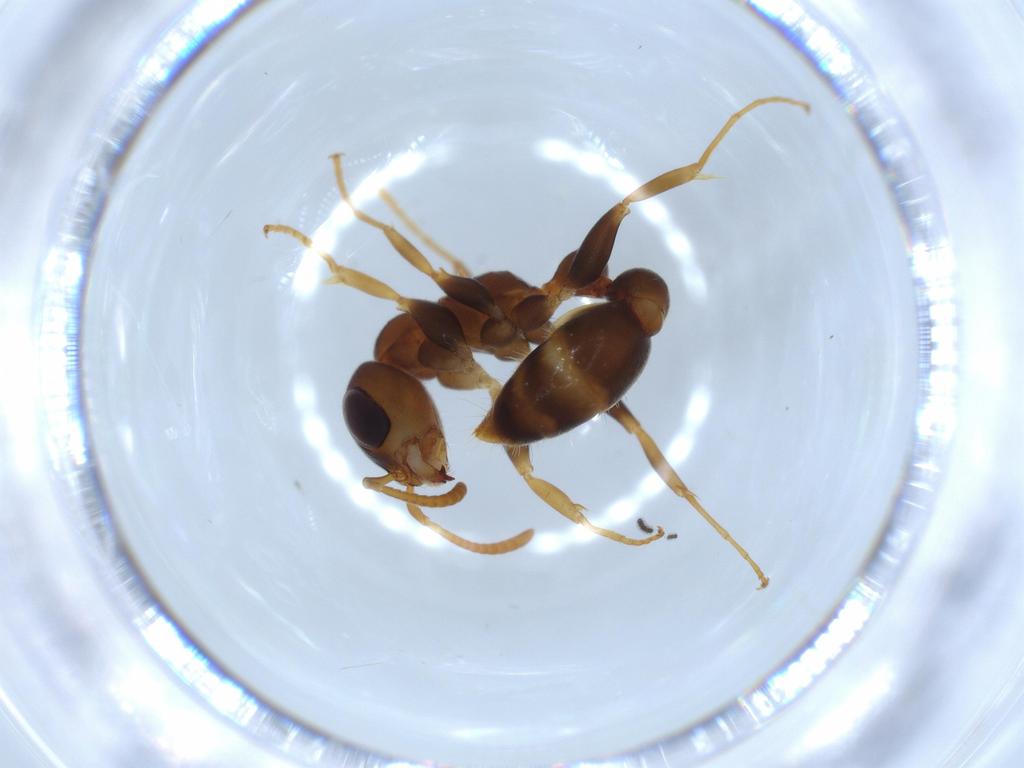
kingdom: Animalia
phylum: Arthropoda
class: Insecta
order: Hymenoptera
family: Formicidae
